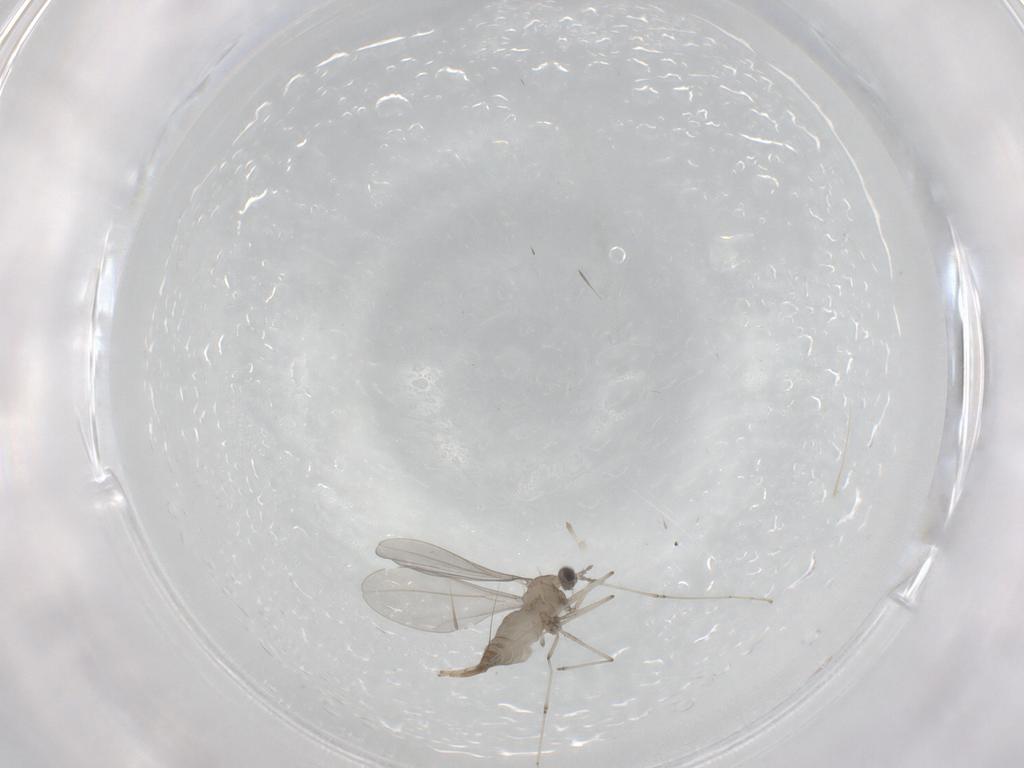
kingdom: Animalia
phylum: Arthropoda
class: Insecta
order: Diptera
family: Cecidomyiidae
